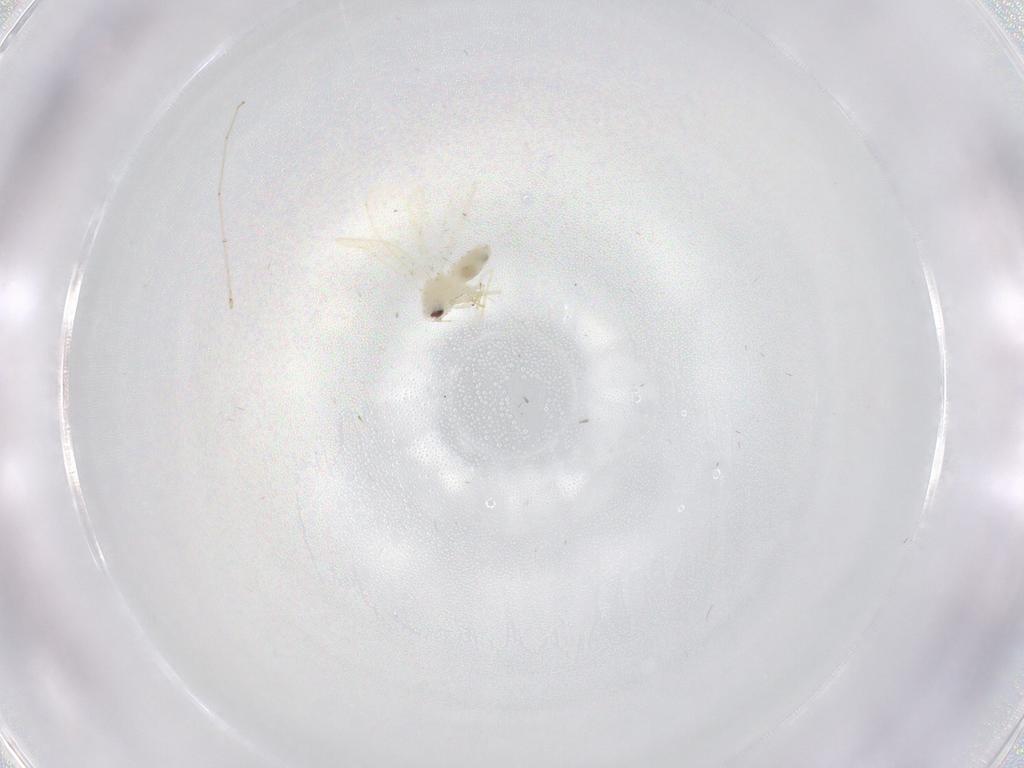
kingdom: Animalia
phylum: Arthropoda
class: Insecta
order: Hemiptera
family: Aleyrodidae
